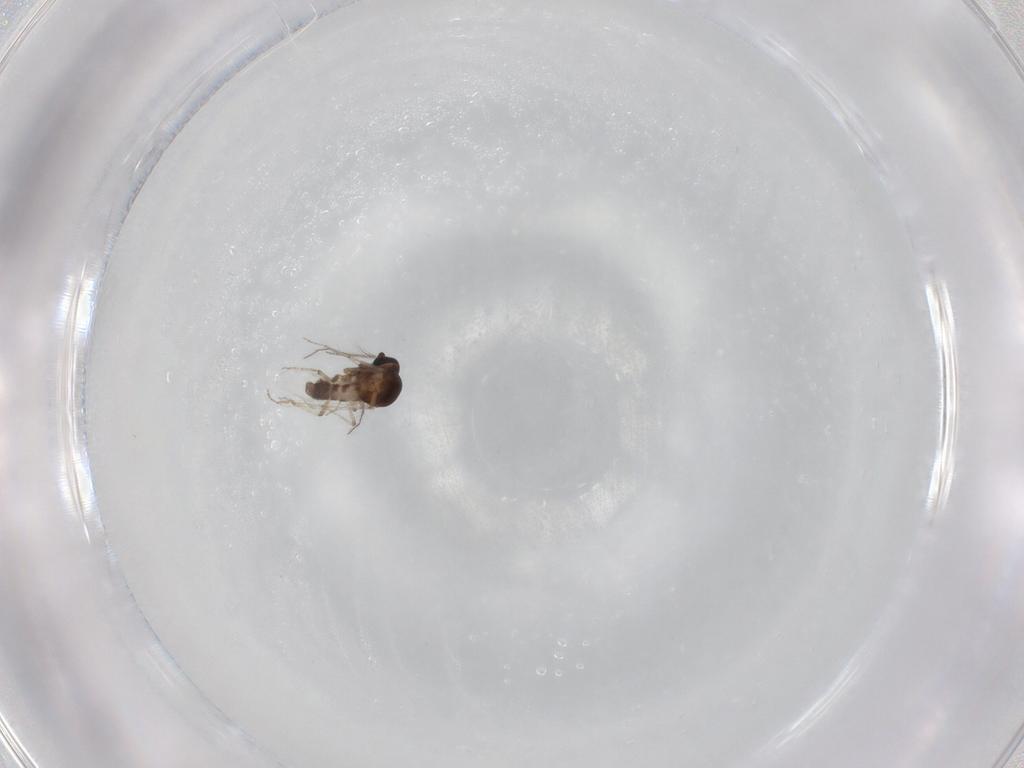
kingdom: Animalia
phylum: Arthropoda
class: Insecta
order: Diptera
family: Ceratopogonidae
